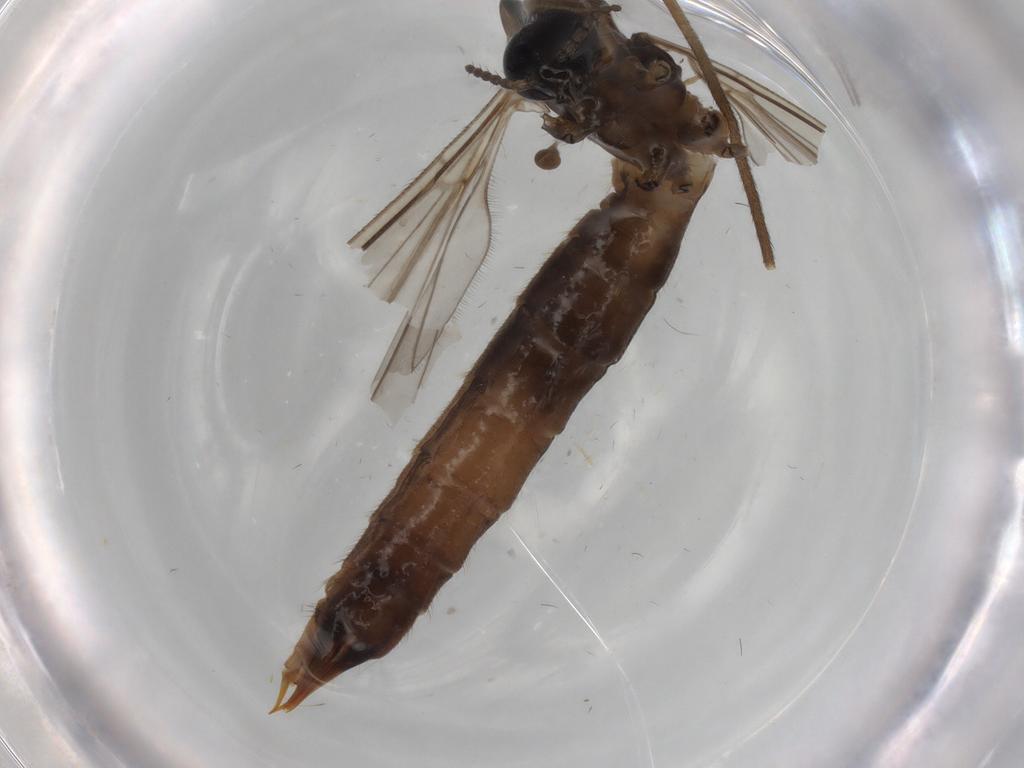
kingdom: Animalia
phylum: Arthropoda
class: Insecta
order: Diptera
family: Limoniidae
